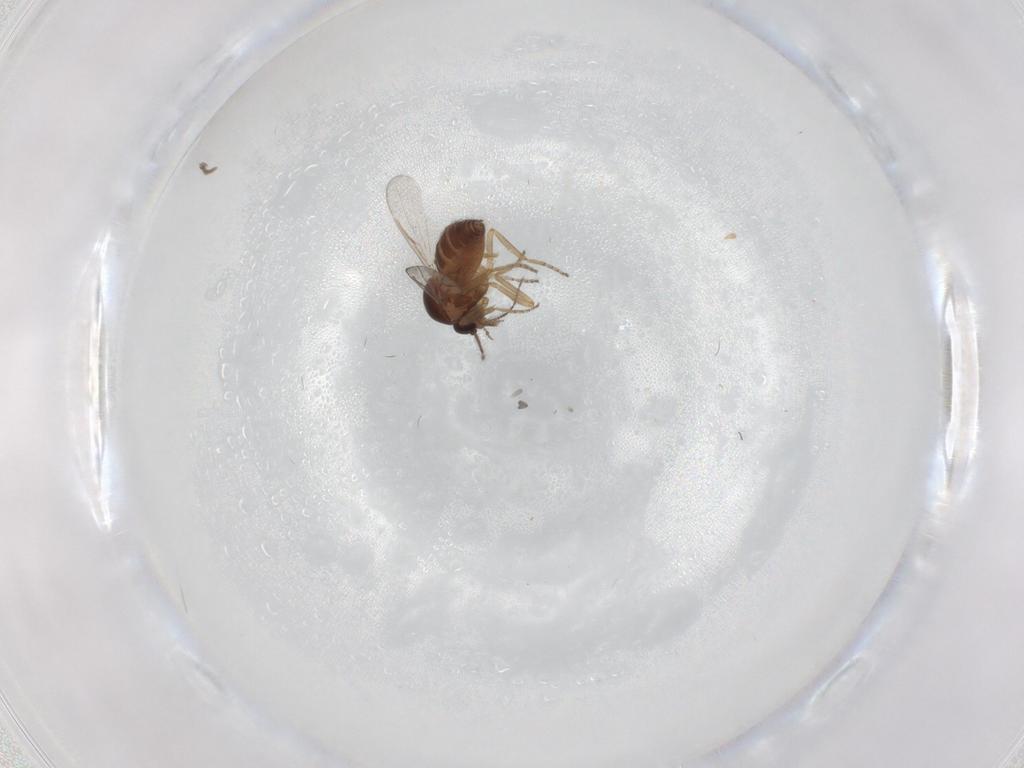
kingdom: Animalia
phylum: Arthropoda
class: Insecta
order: Diptera
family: Ceratopogonidae
